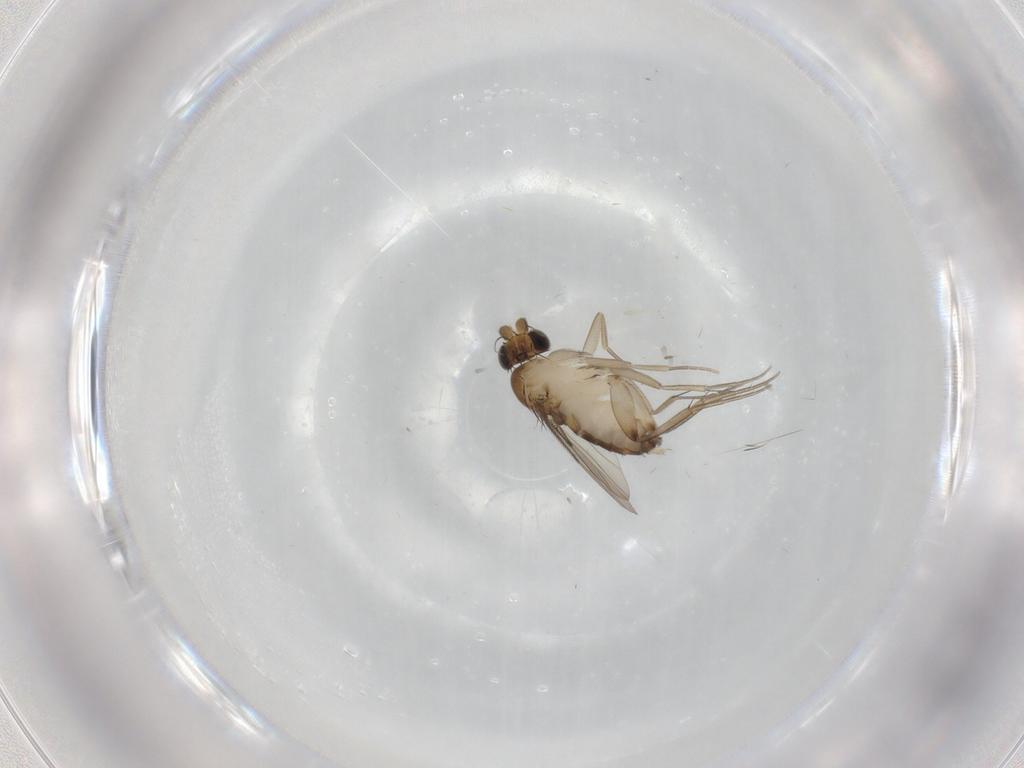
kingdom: Animalia
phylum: Arthropoda
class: Insecta
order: Diptera
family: Phoridae
